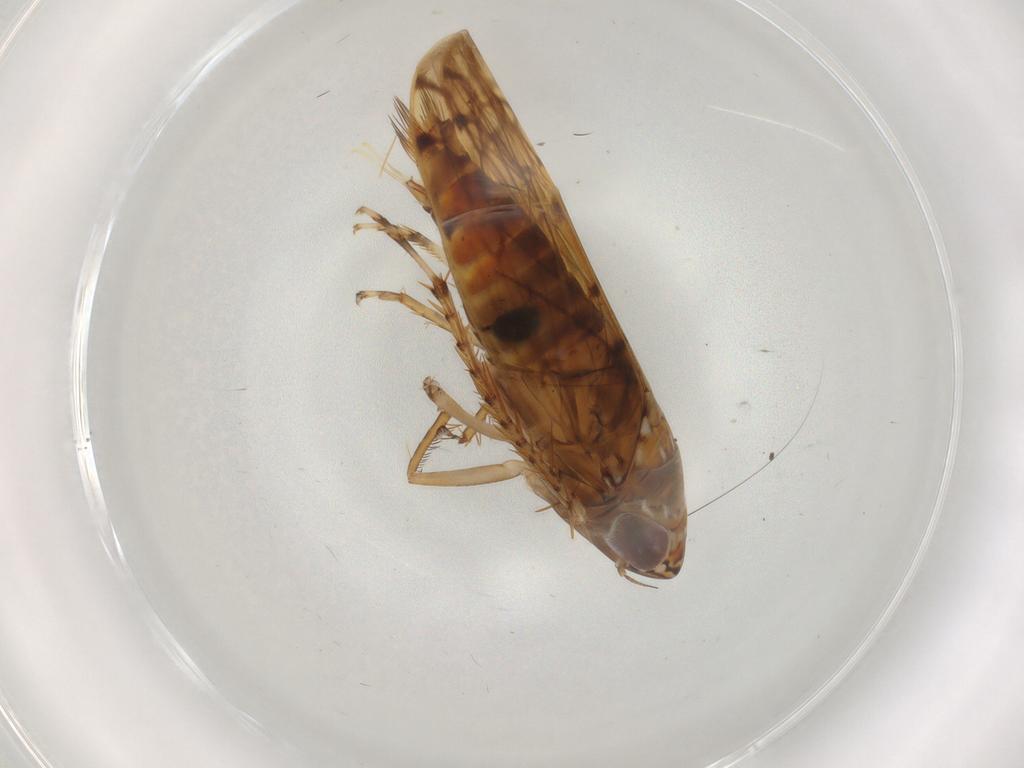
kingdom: Animalia
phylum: Arthropoda
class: Insecta
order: Hemiptera
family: Cicadellidae
